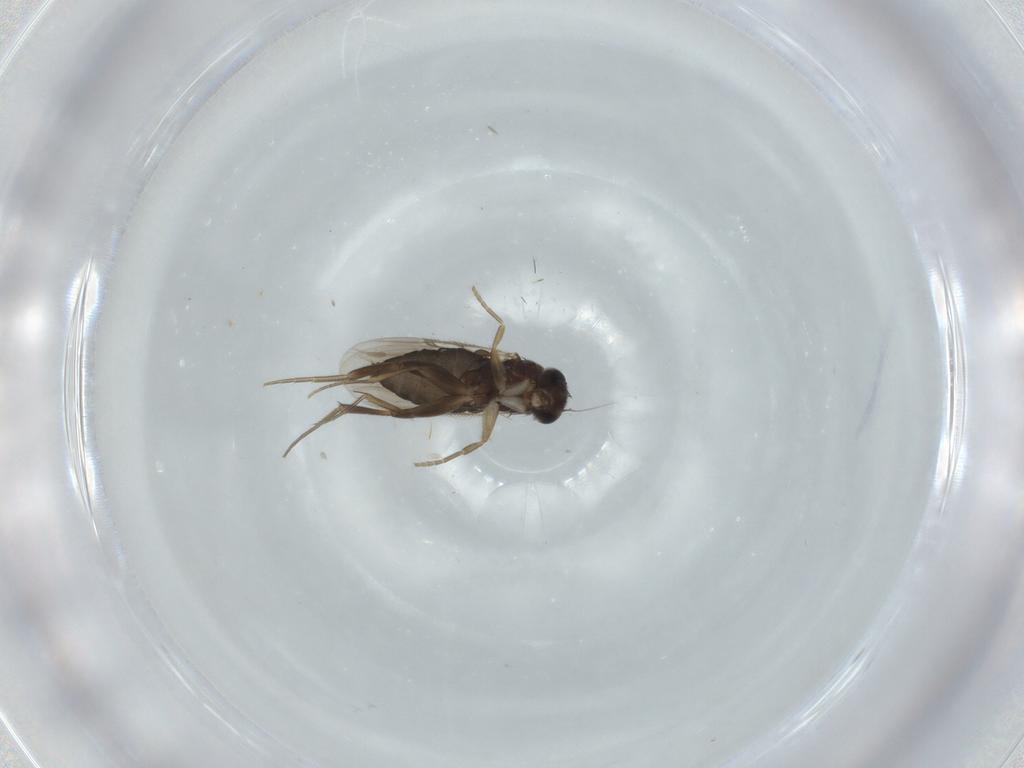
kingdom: Animalia
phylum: Arthropoda
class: Insecta
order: Diptera
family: Phoridae
